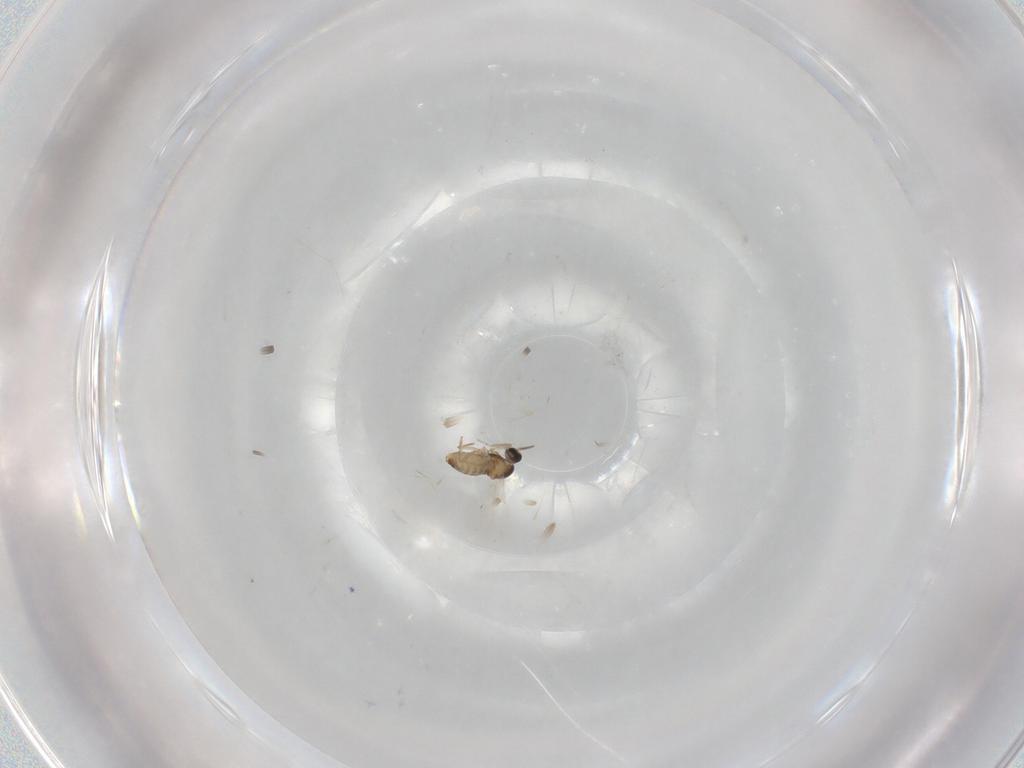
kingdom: Animalia
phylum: Arthropoda
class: Insecta
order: Diptera
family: Cecidomyiidae
